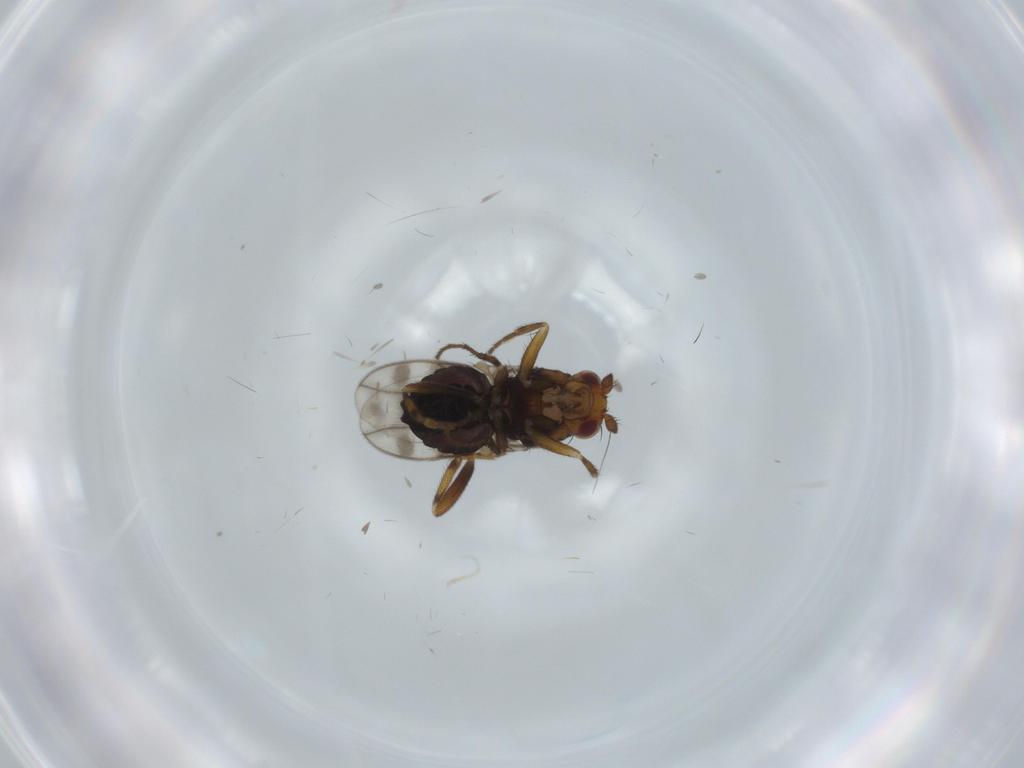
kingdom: Animalia
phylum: Arthropoda
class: Insecta
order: Diptera
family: Sphaeroceridae
